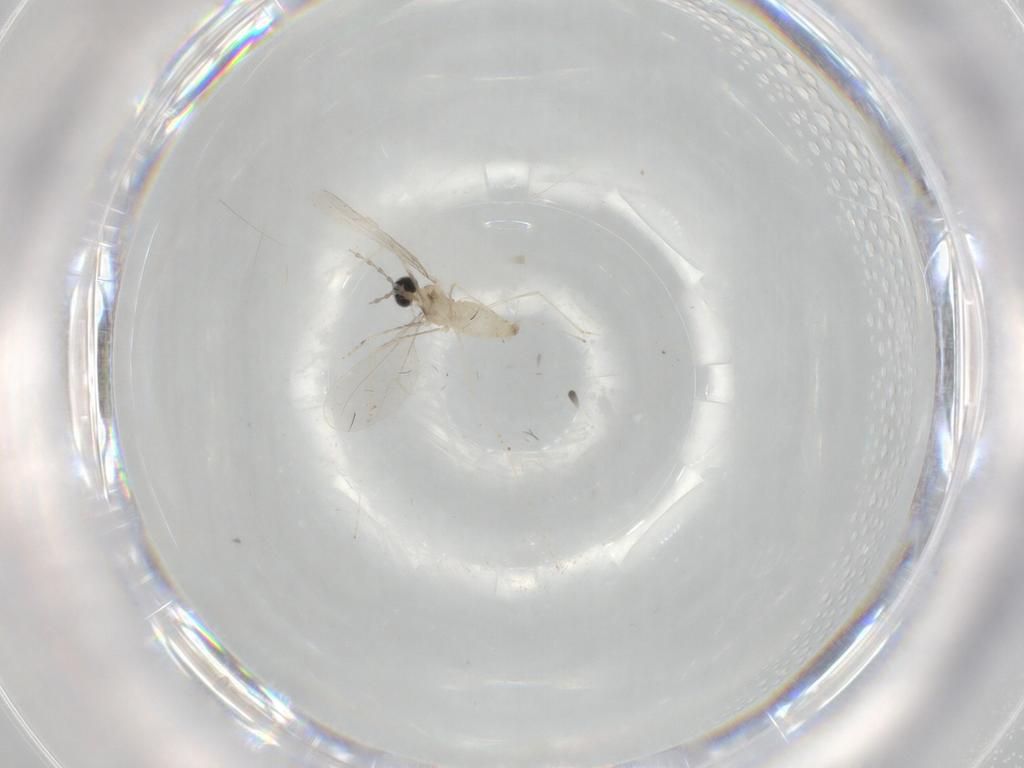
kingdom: Animalia
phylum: Arthropoda
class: Insecta
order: Diptera
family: Cecidomyiidae
